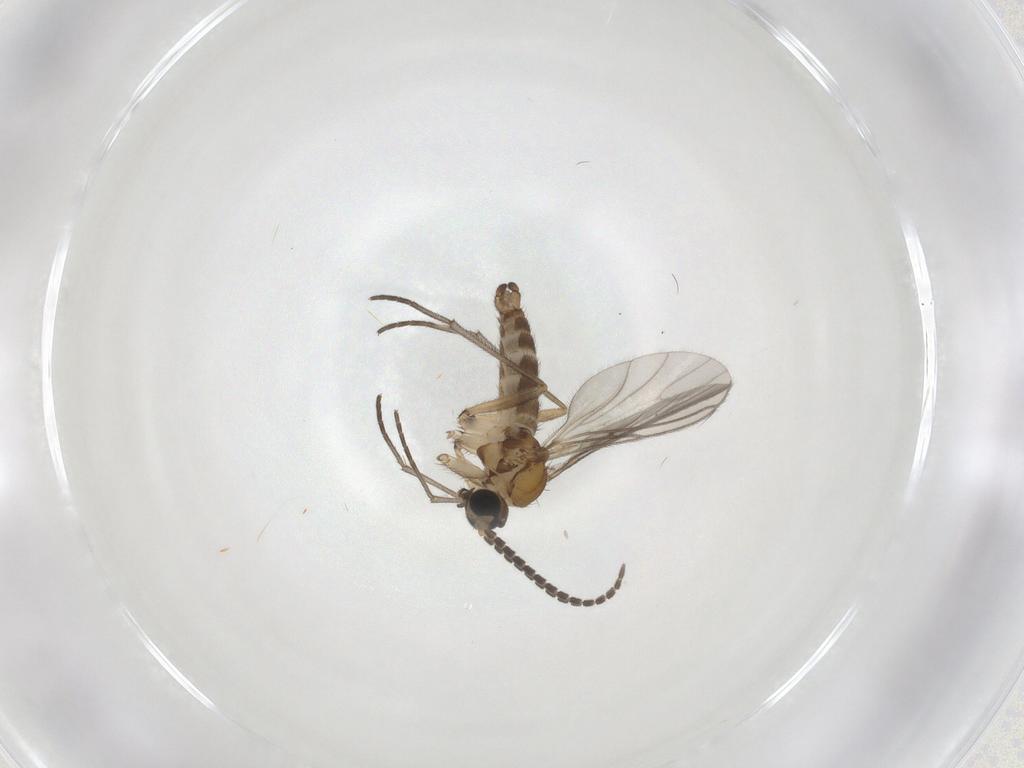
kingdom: Animalia
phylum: Arthropoda
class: Insecta
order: Diptera
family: Sciaridae
